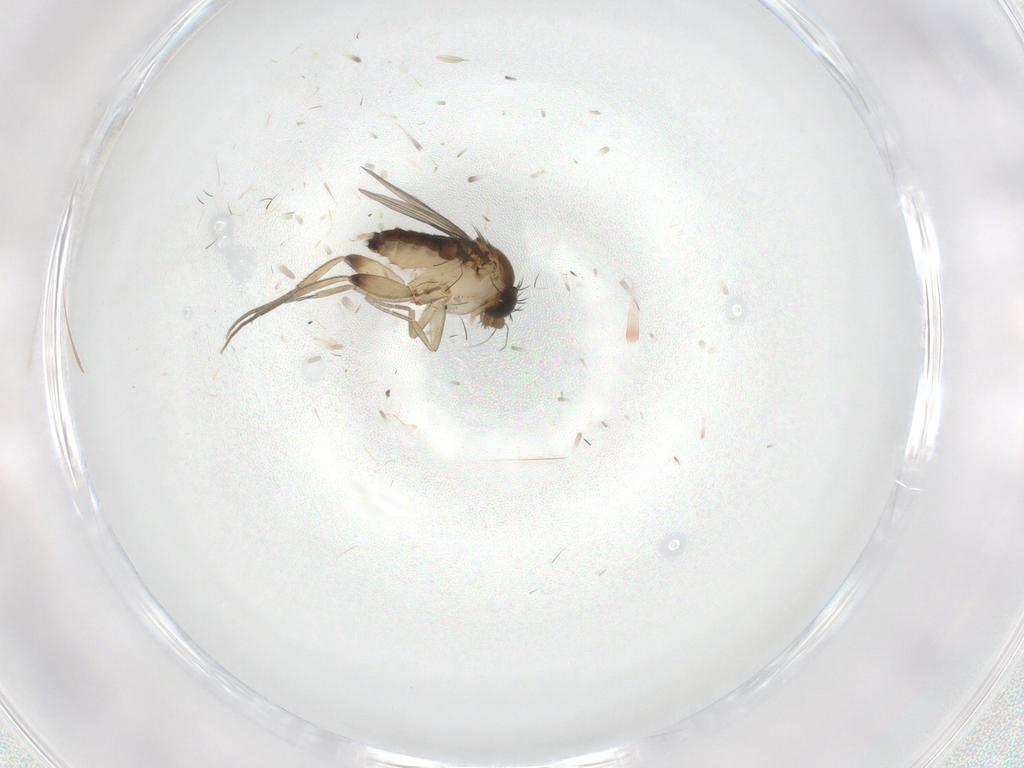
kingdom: Animalia
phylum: Arthropoda
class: Insecta
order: Diptera
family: Phoridae
